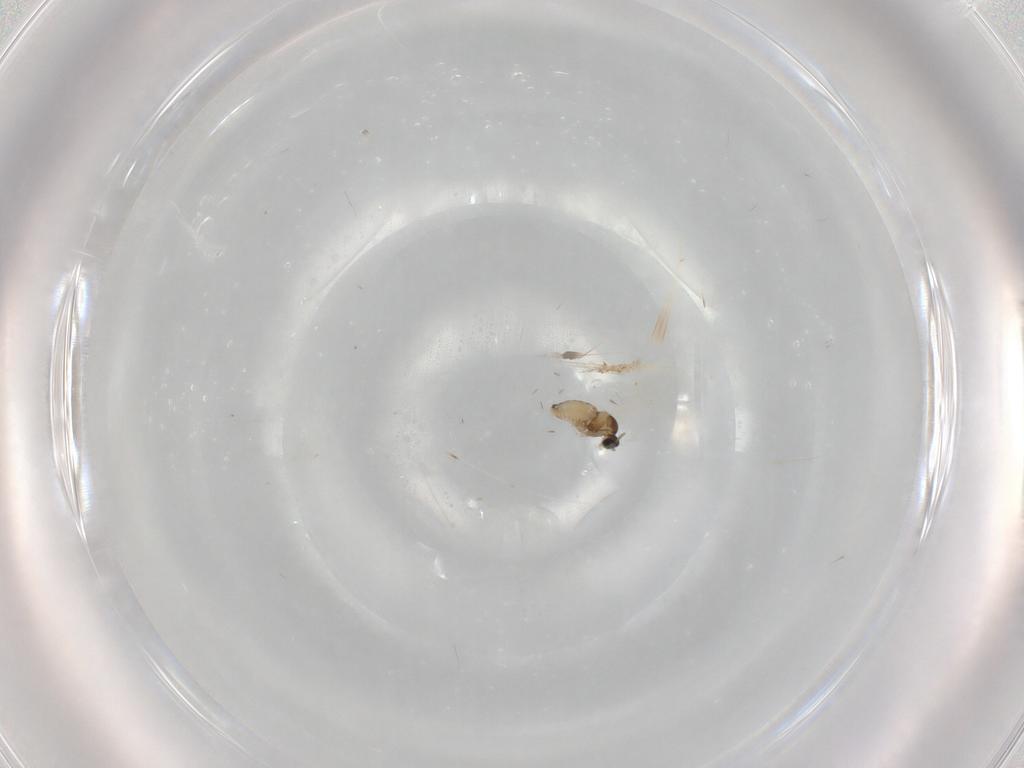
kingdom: Animalia
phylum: Arthropoda
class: Insecta
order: Diptera
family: Cecidomyiidae
